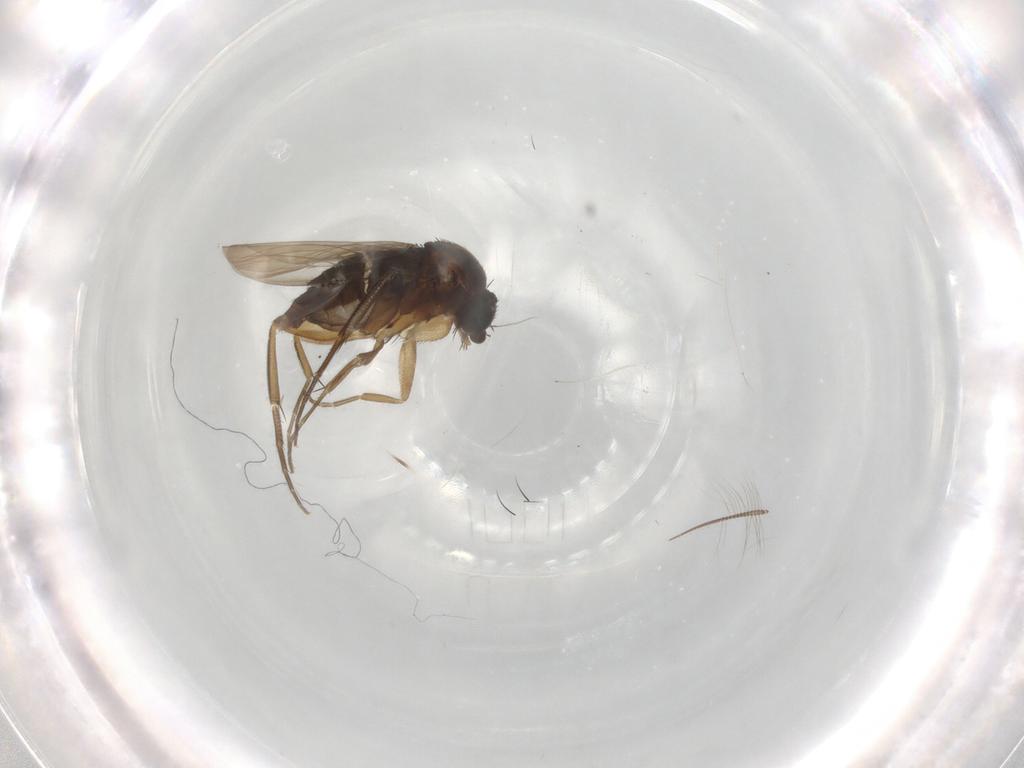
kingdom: Animalia
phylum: Arthropoda
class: Insecta
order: Diptera
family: Phoridae
